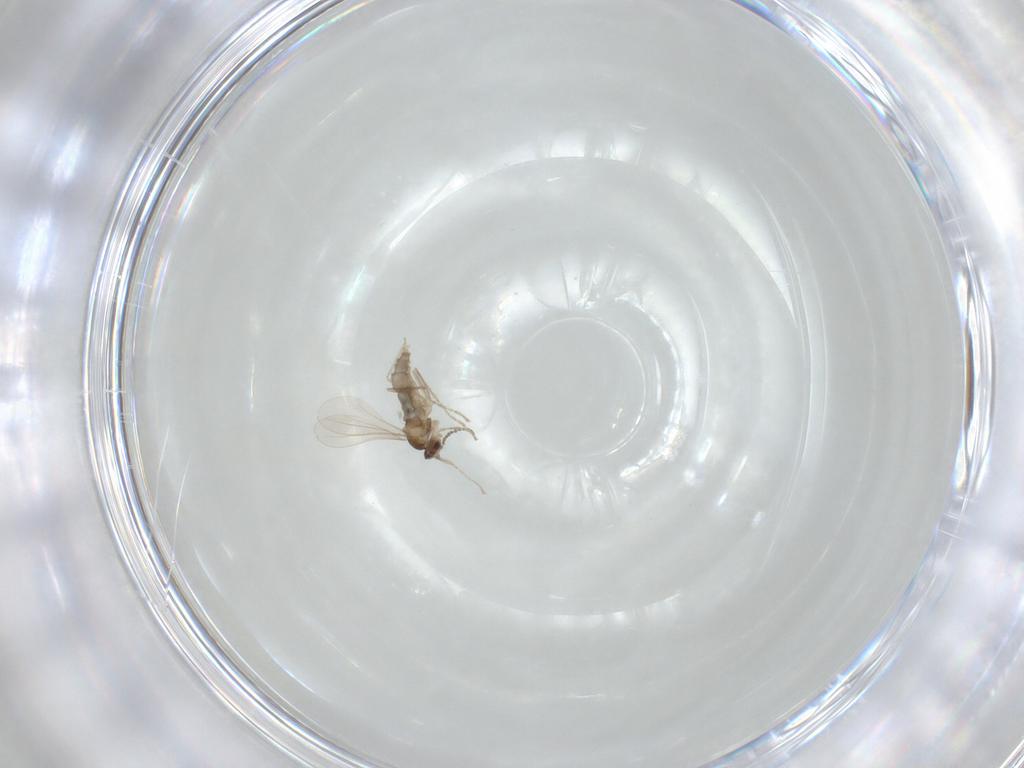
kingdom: Animalia
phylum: Arthropoda
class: Insecta
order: Diptera
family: Cecidomyiidae
